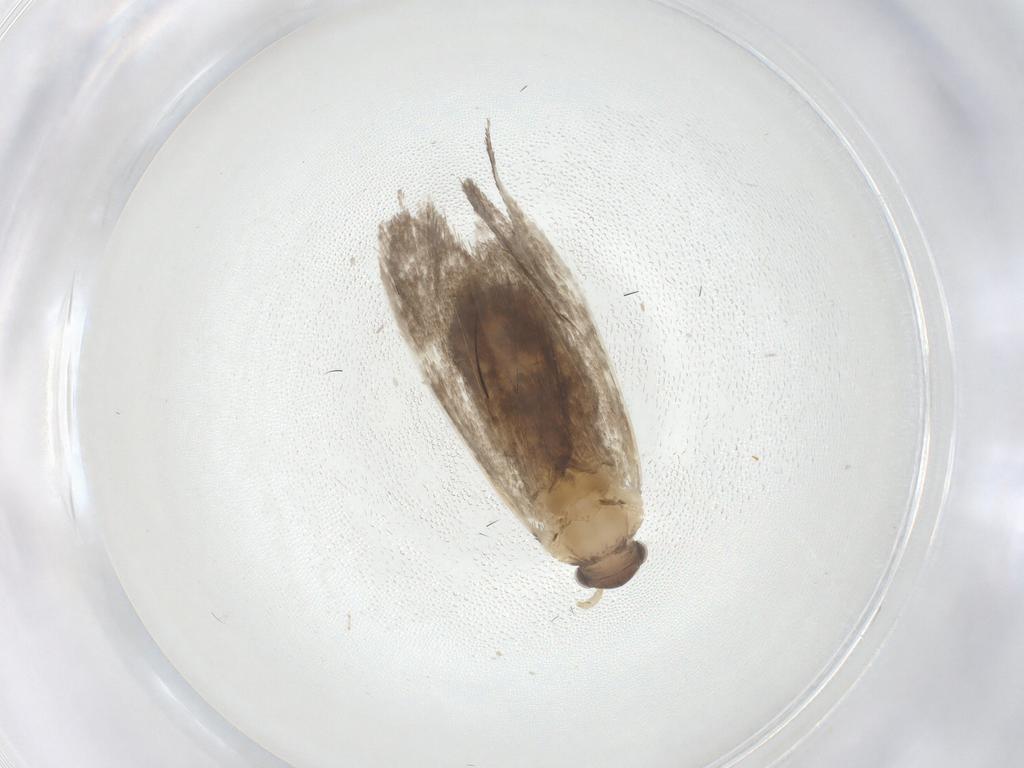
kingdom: Animalia
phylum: Arthropoda
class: Insecta
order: Lepidoptera
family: Dryadaulidae
